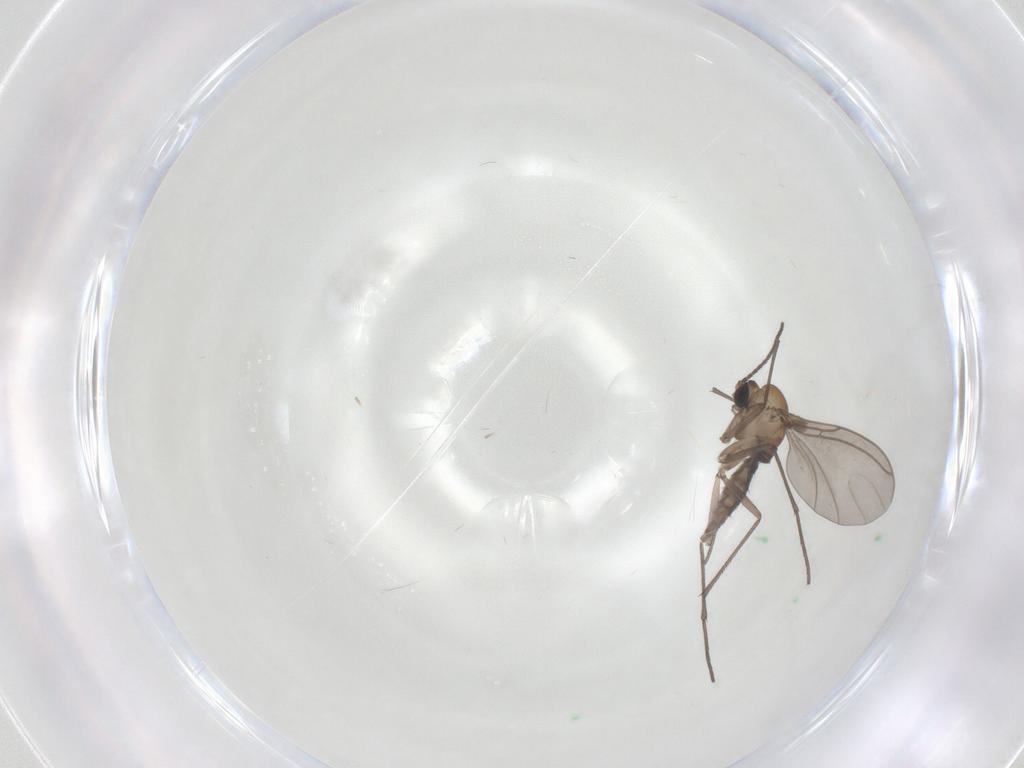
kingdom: Animalia
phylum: Arthropoda
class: Insecta
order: Diptera
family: Sciaridae
